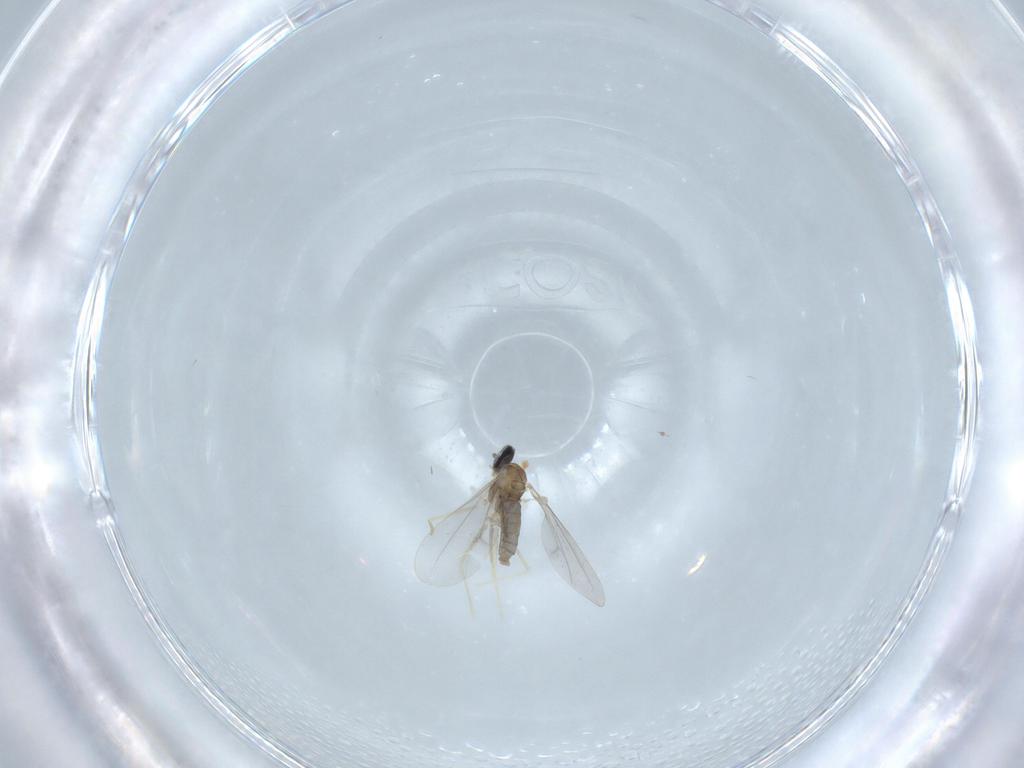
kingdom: Animalia
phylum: Arthropoda
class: Insecta
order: Diptera
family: Cecidomyiidae
